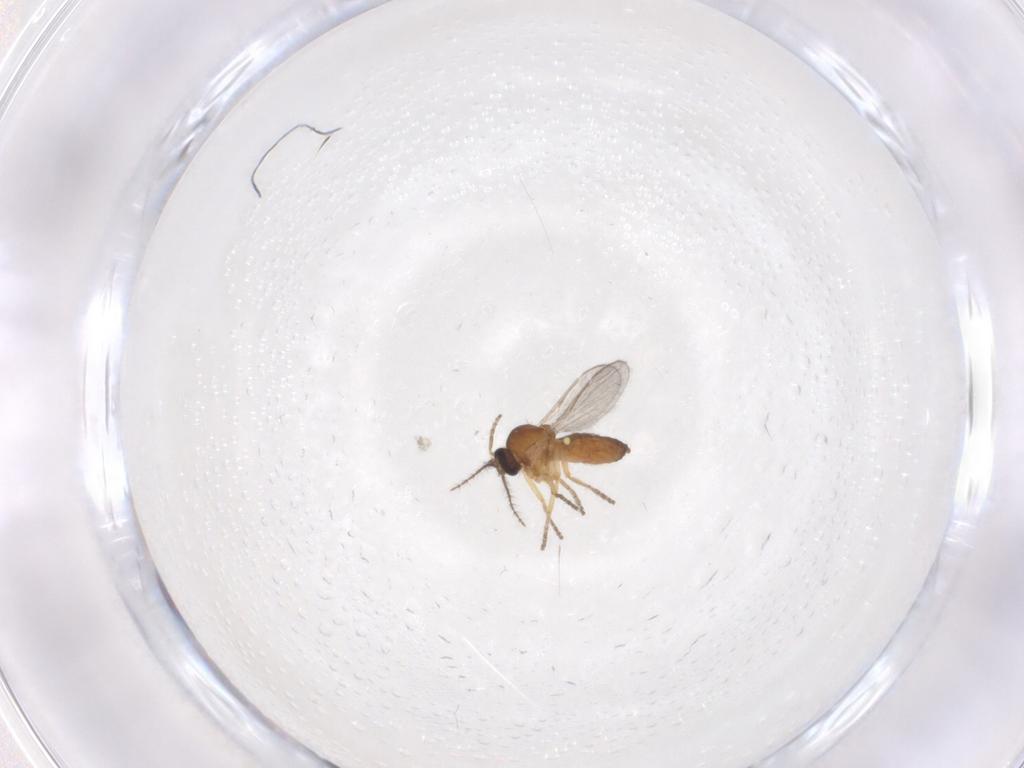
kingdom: Animalia
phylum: Arthropoda
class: Insecta
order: Diptera
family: Ceratopogonidae
